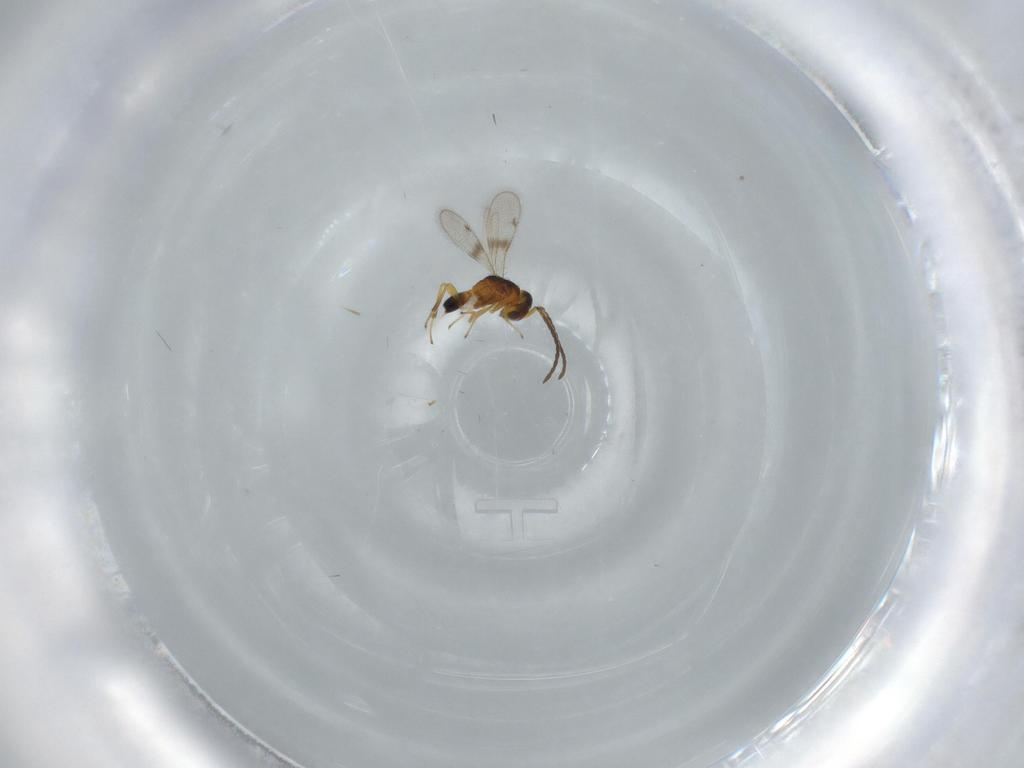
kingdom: Animalia
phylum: Arthropoda
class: Insecta
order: Hymenoptera
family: Scelionidae
